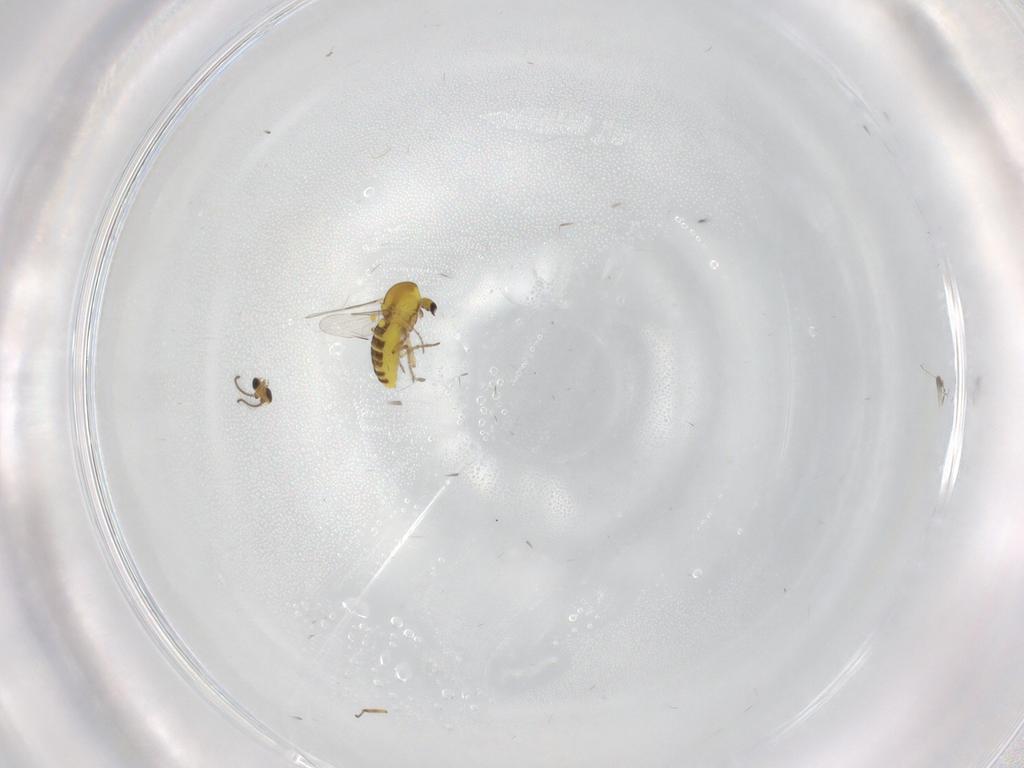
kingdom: Animalia
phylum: Arthropoda
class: Insecta
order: Diptera
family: Ceratopogonidae
